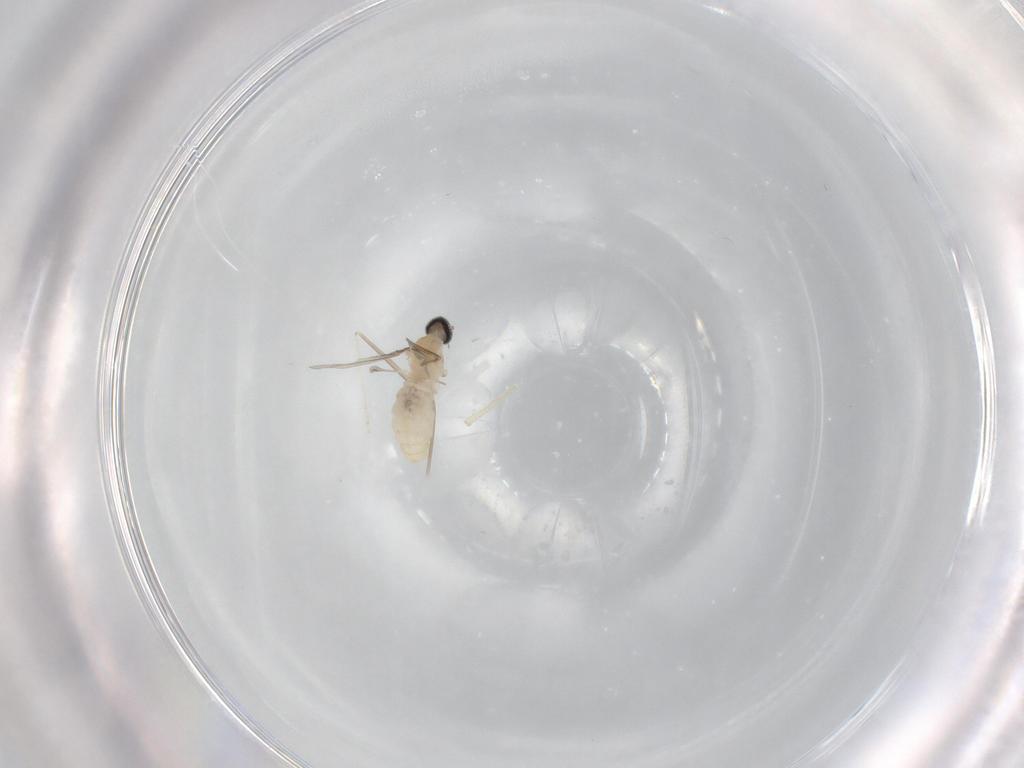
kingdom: Animalia
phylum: Arthropoda
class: Insecta
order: Diptera
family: Cecidomyiidae
